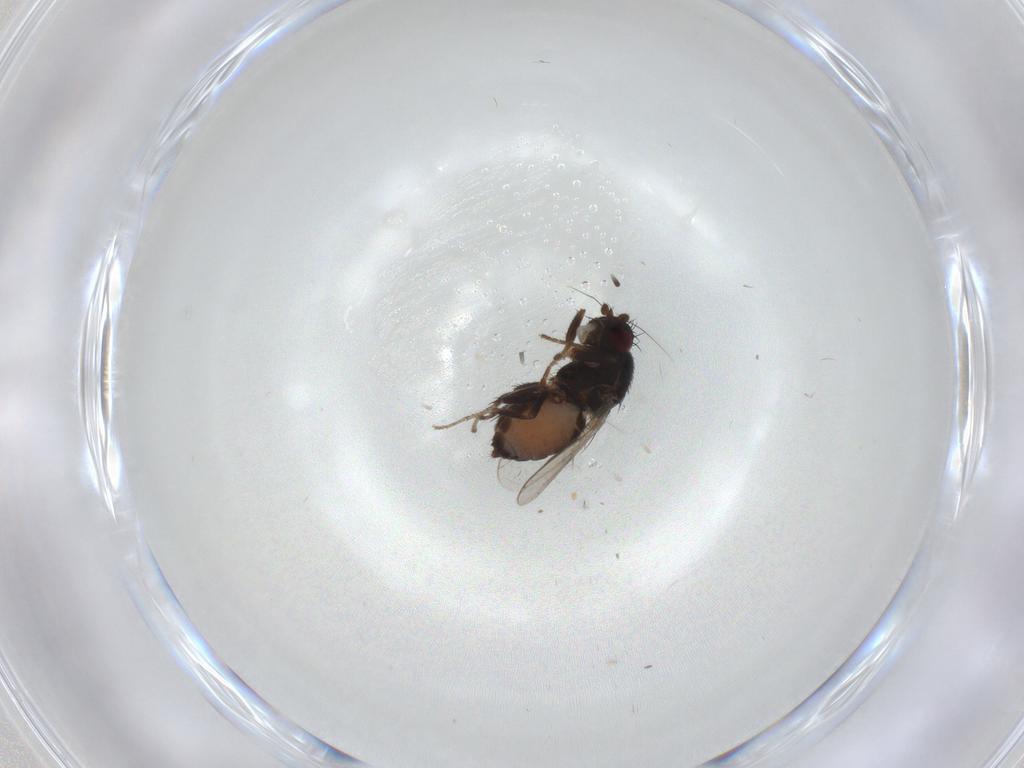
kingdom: Animalia
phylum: Arthropoda
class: Insecta
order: Diptera
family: Sphaeroceridae
